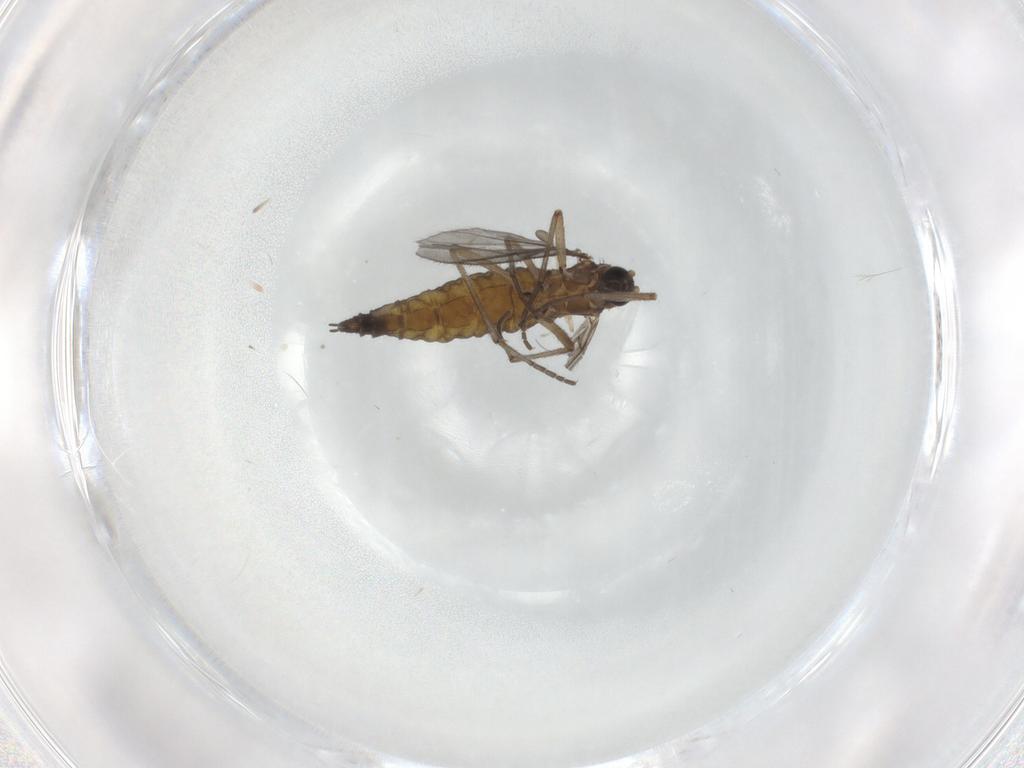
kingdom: Animalia
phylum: Arthropoda
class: Insecta
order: Diptera
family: Sciaridae
